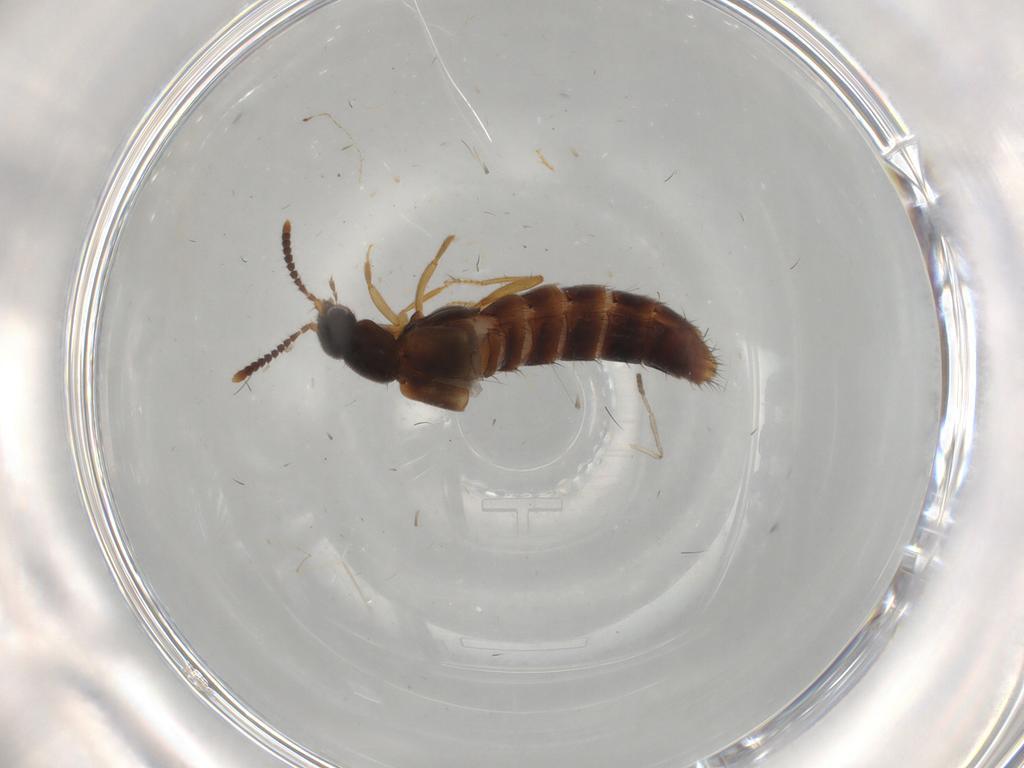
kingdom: Animalia
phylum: Arthropoda
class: Insecta
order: Coleoptera
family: Staphylinidae
